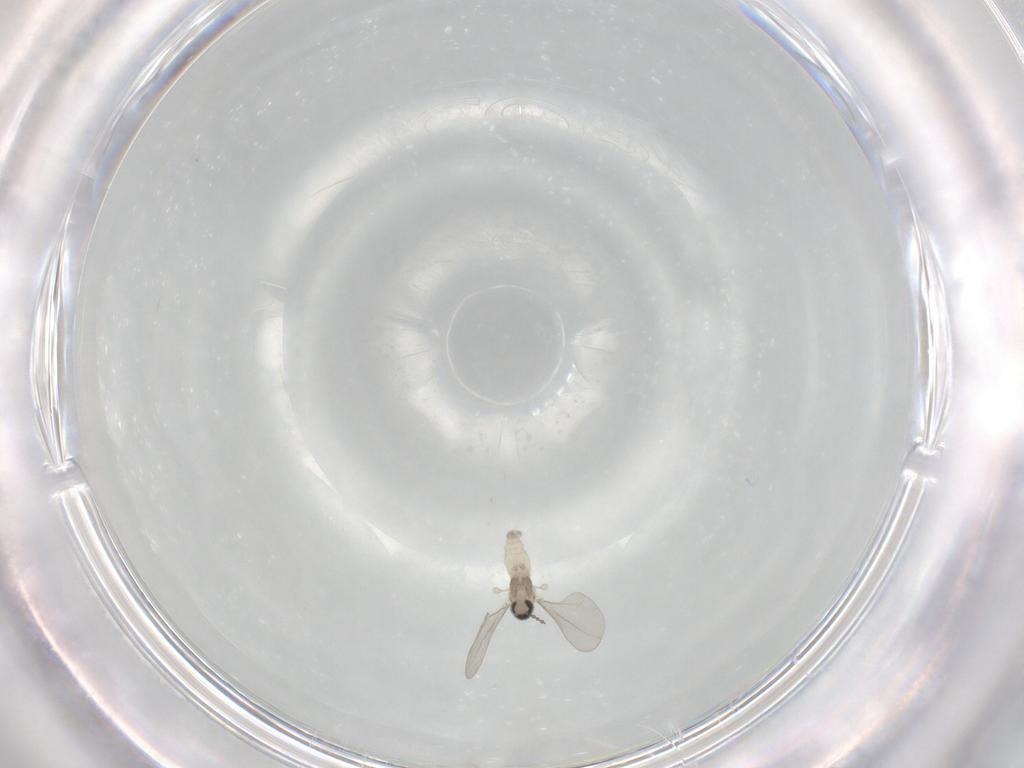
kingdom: Animalia
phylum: Arthropoda
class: Insecta
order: Diptera
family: Cecidomyiidae
